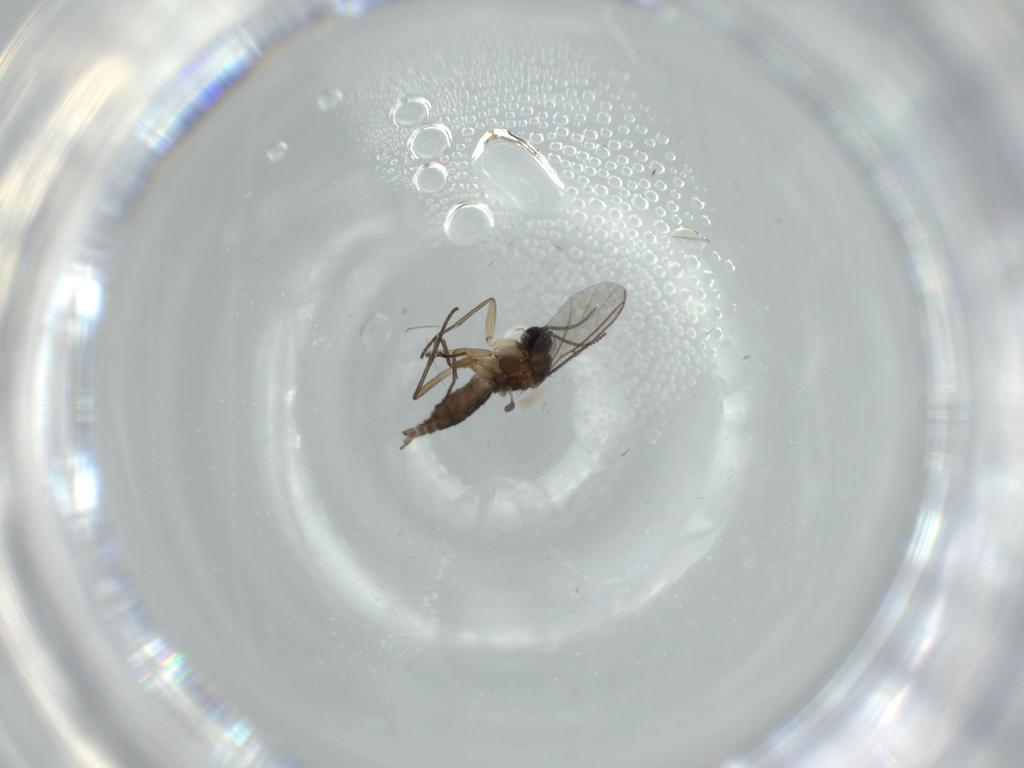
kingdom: Animalia
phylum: Arthropoda
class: Insecta
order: Diptera
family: Sciaridae
